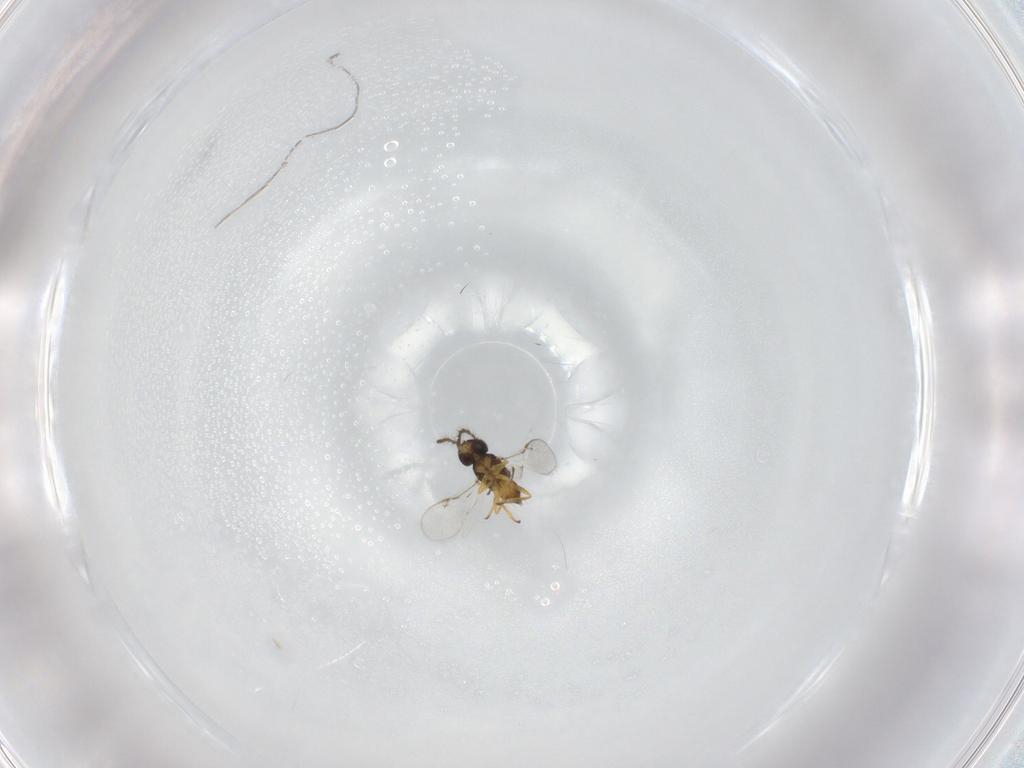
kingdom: Animalia
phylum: Arthropoda
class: Insecta
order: Hymenoptera
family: Encyrtidae
